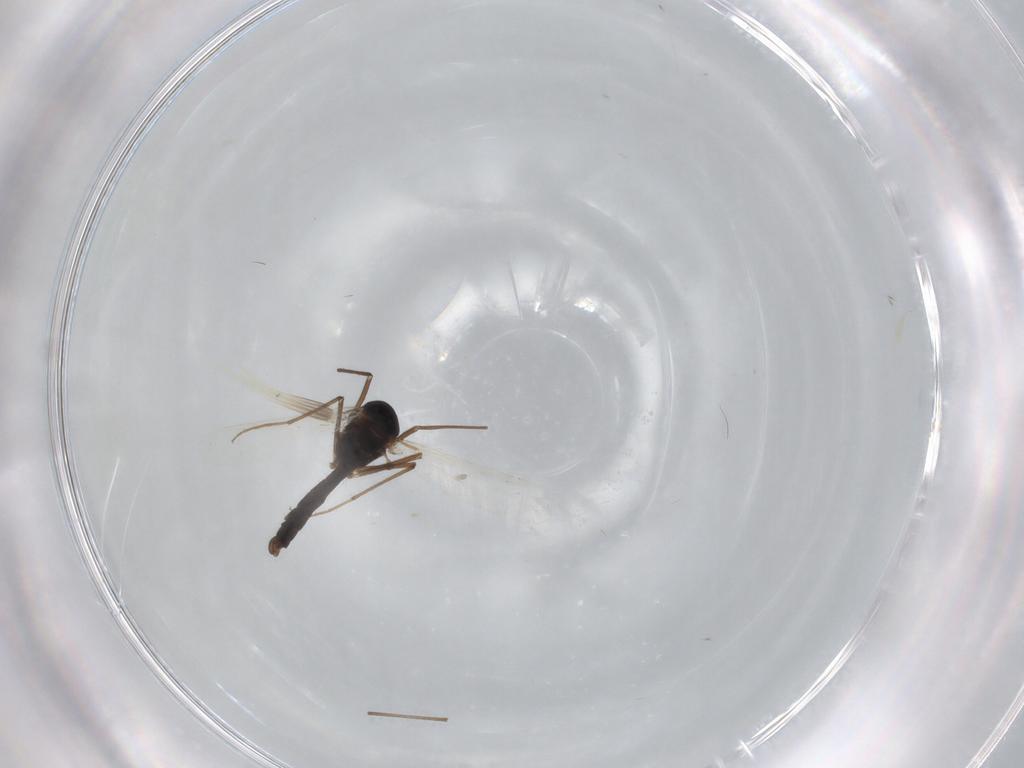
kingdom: Animalia
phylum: Arthropoda
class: Insecta
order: Diptera
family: Chironomidae
